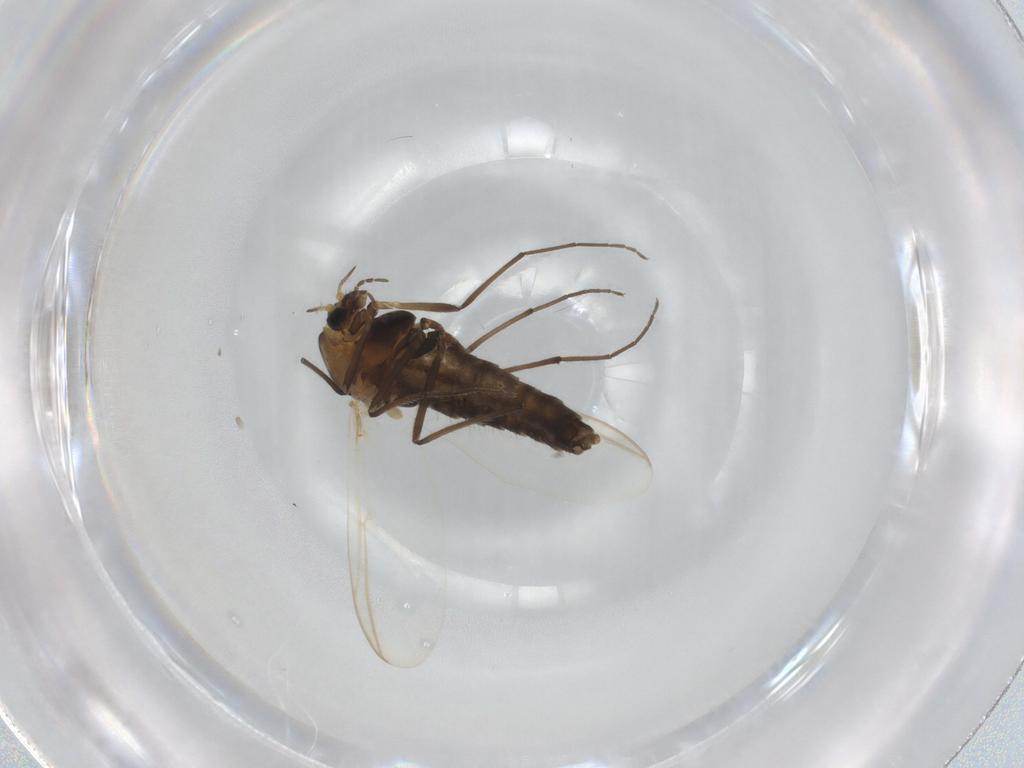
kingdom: Animalia
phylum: Arthropoda
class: Insecta
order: Diptera
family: Chironomidae
